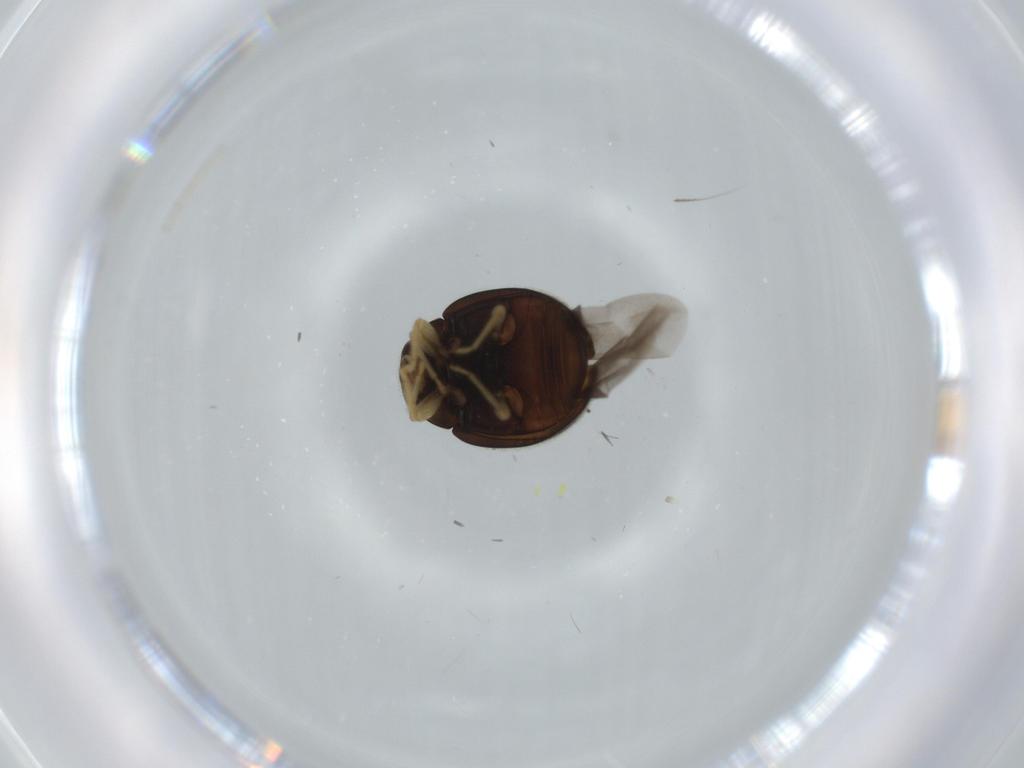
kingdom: Animalia
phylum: Arthropoda
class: Insecta
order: Coleoptera
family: Coccinellidae
